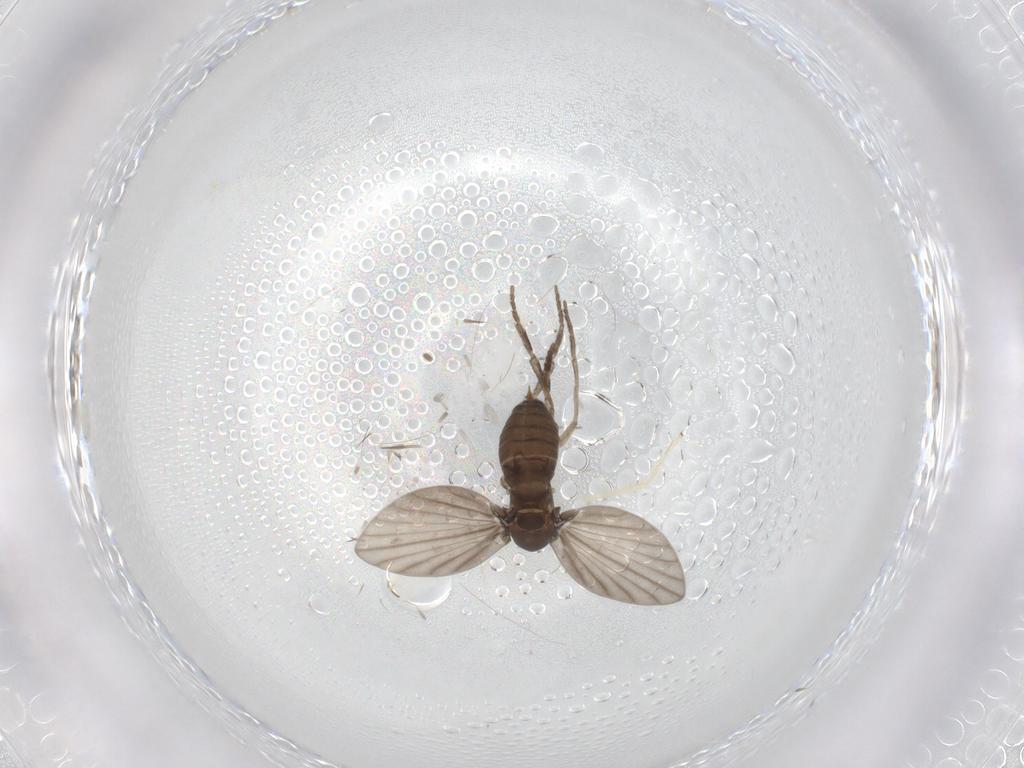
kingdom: Animalia
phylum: Arthropoda
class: Insecta
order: Diptera
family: Psychodidae
